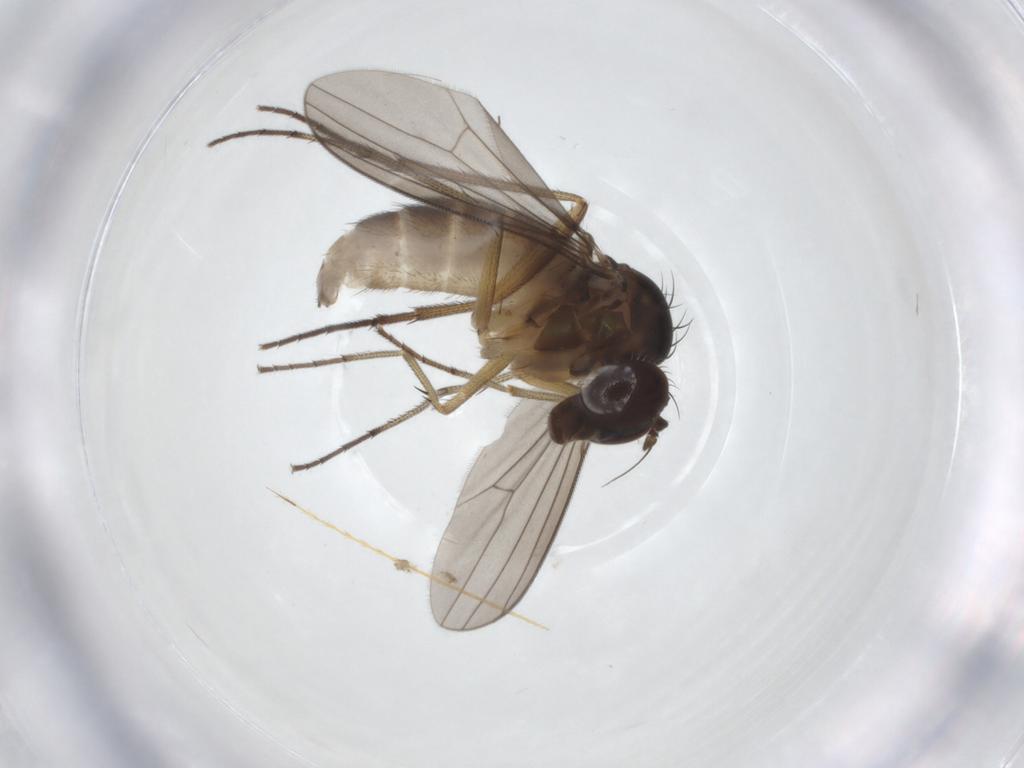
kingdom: Animalia
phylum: Arthropoda
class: Insecta
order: Diptera
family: Dolichopodidae
